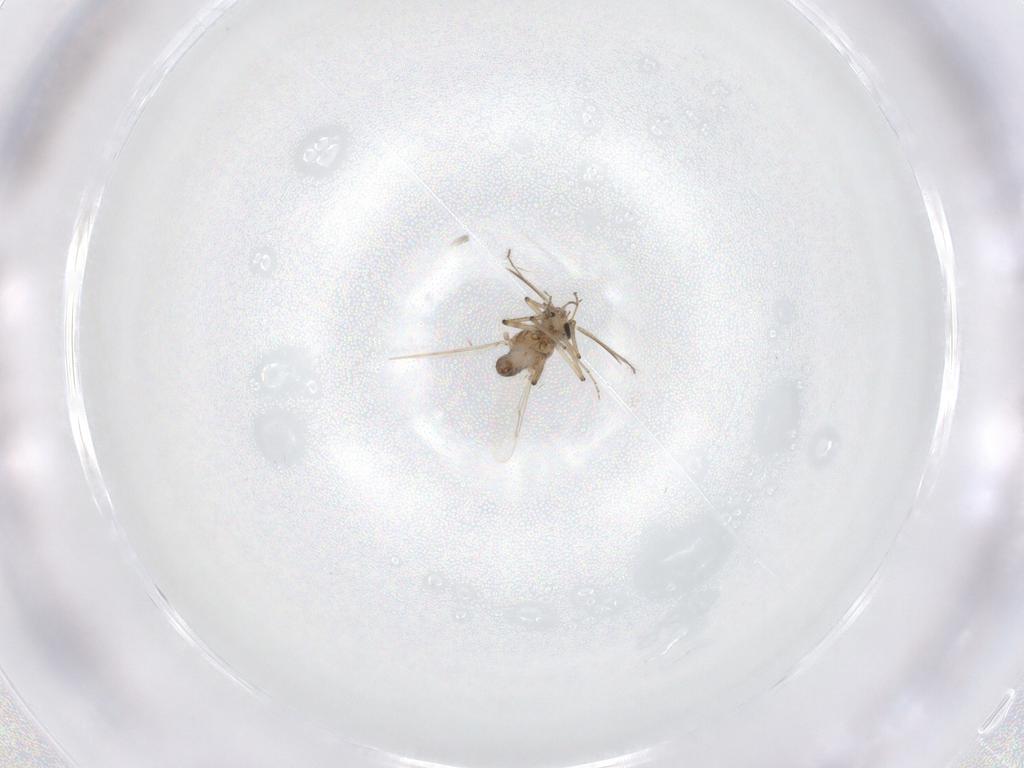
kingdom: Animalia
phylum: Arthropoda
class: Insecta
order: Diptera
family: Ceratopogonidae
